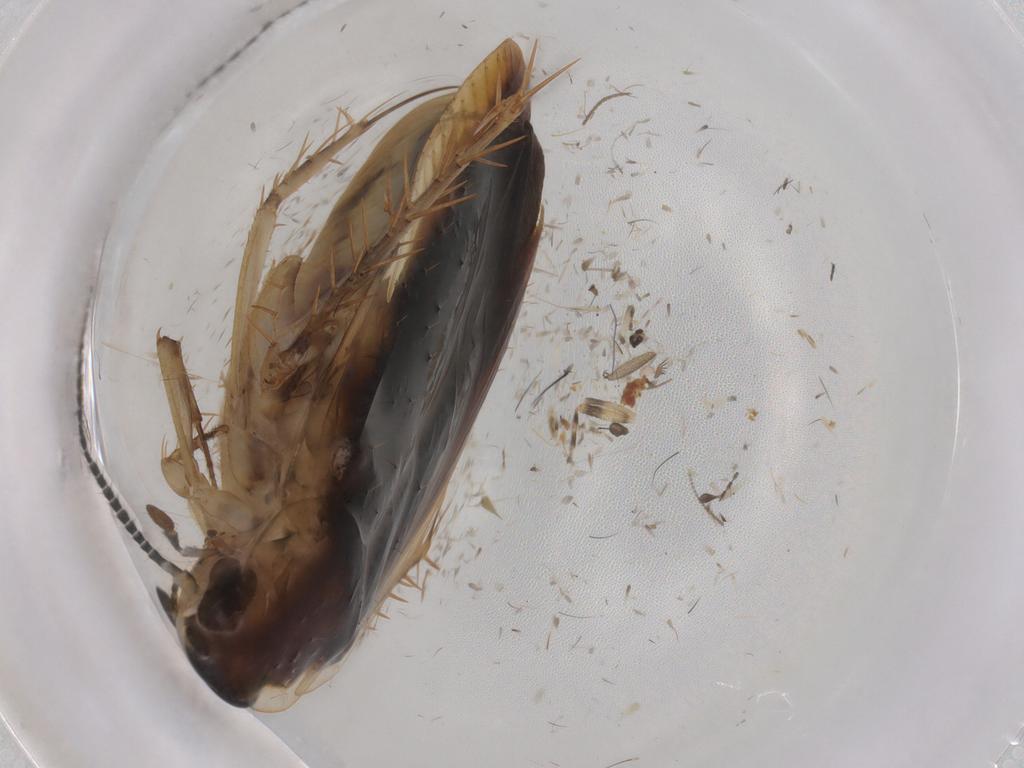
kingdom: Animalia
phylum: Arthropoda
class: Insecta
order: Blattodea
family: Ectobiidae
